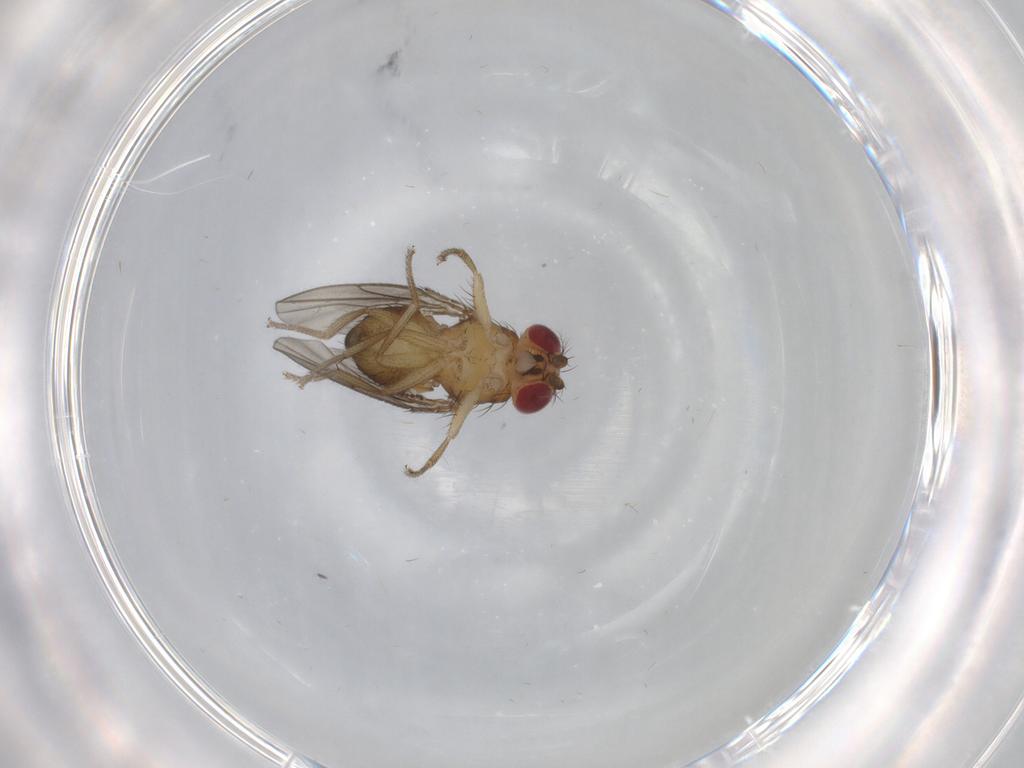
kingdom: Animalia
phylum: Arthropoda
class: Insecta
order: Diptera
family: Drosophilidae
